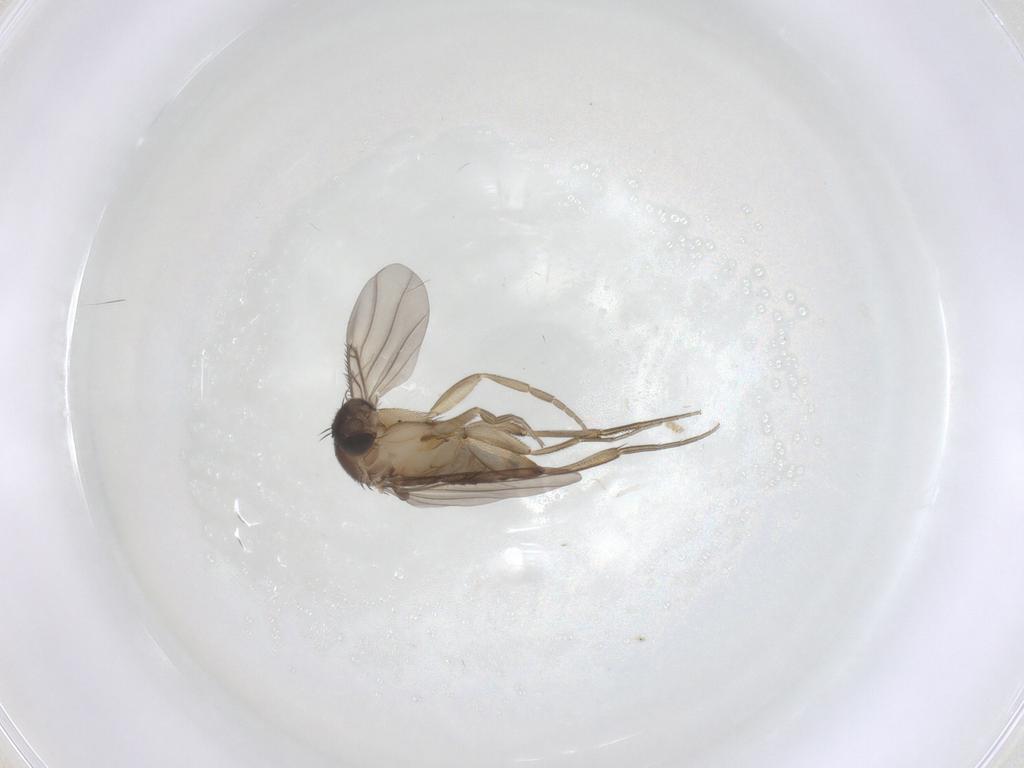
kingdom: Animalia
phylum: Arthropoda
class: Insecta
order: Diptera
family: Phoridae
